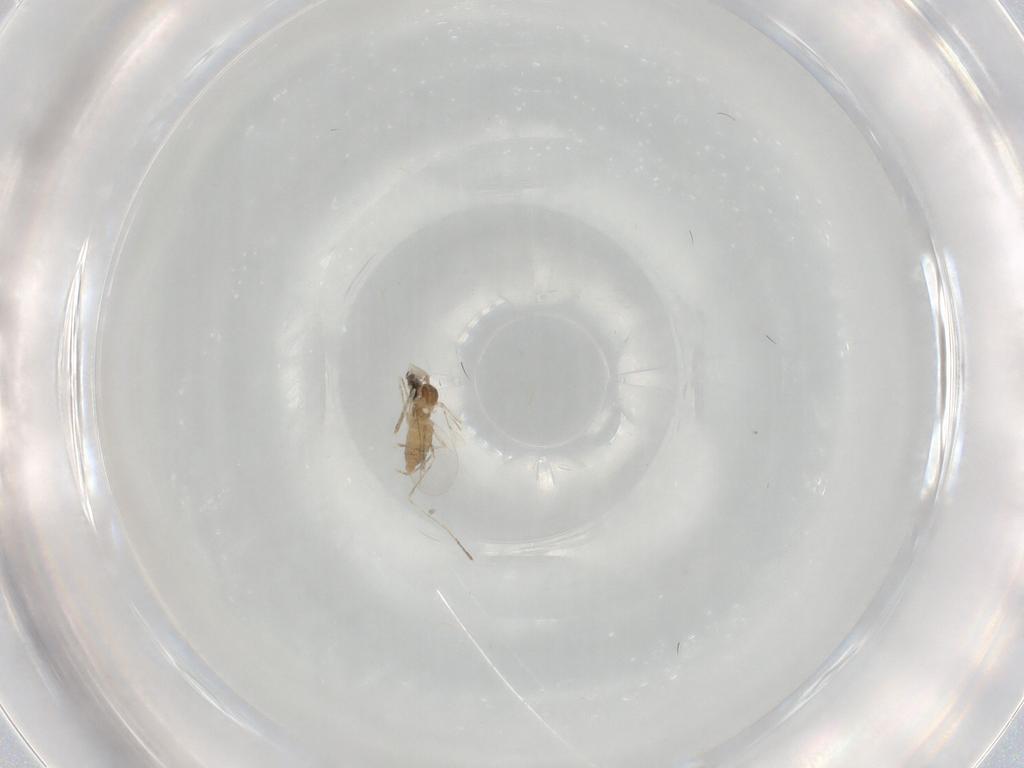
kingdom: Animalia
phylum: Arthropoda
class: Insecta
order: Diptera
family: Cecidomyiidae
